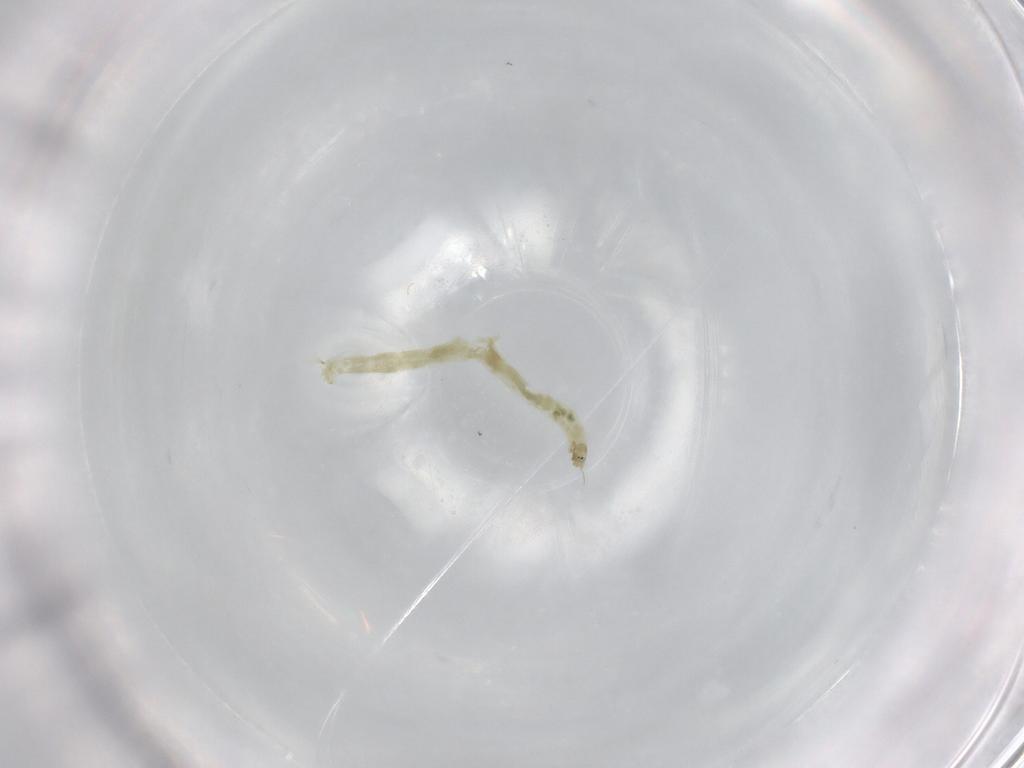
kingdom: Animalia
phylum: Arthropoda
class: Insecta
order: Diptera
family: Chironomidae
